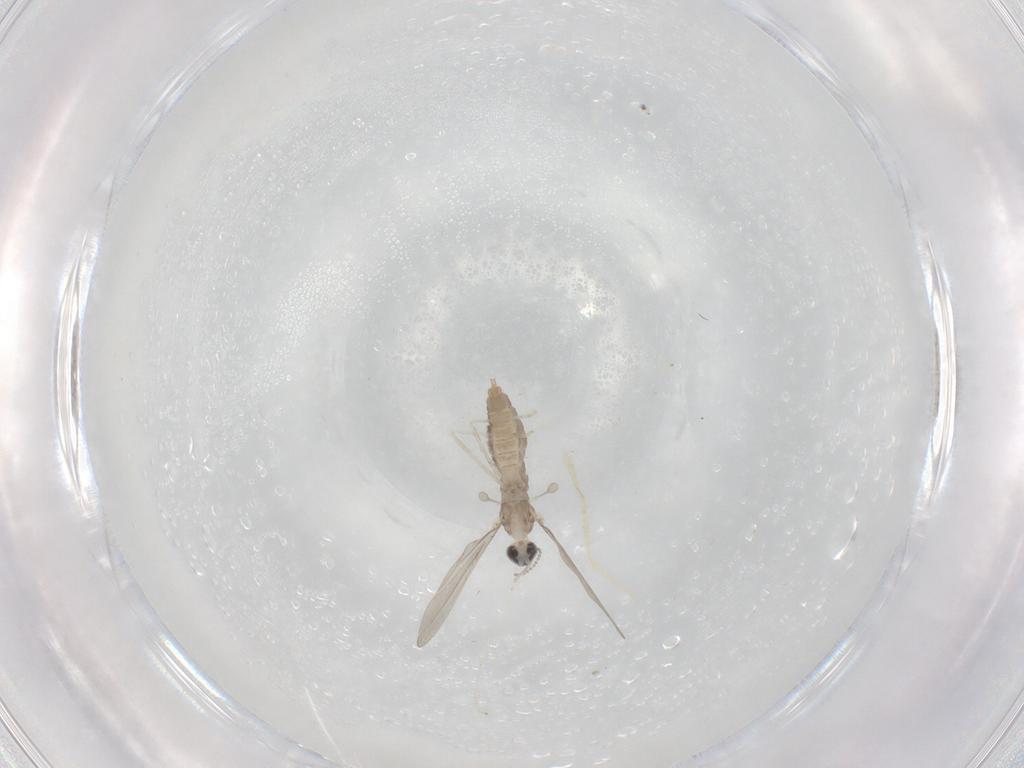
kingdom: Animalia
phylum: Arthropoda
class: Insecta
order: Diptera
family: Cecidomyiidae
